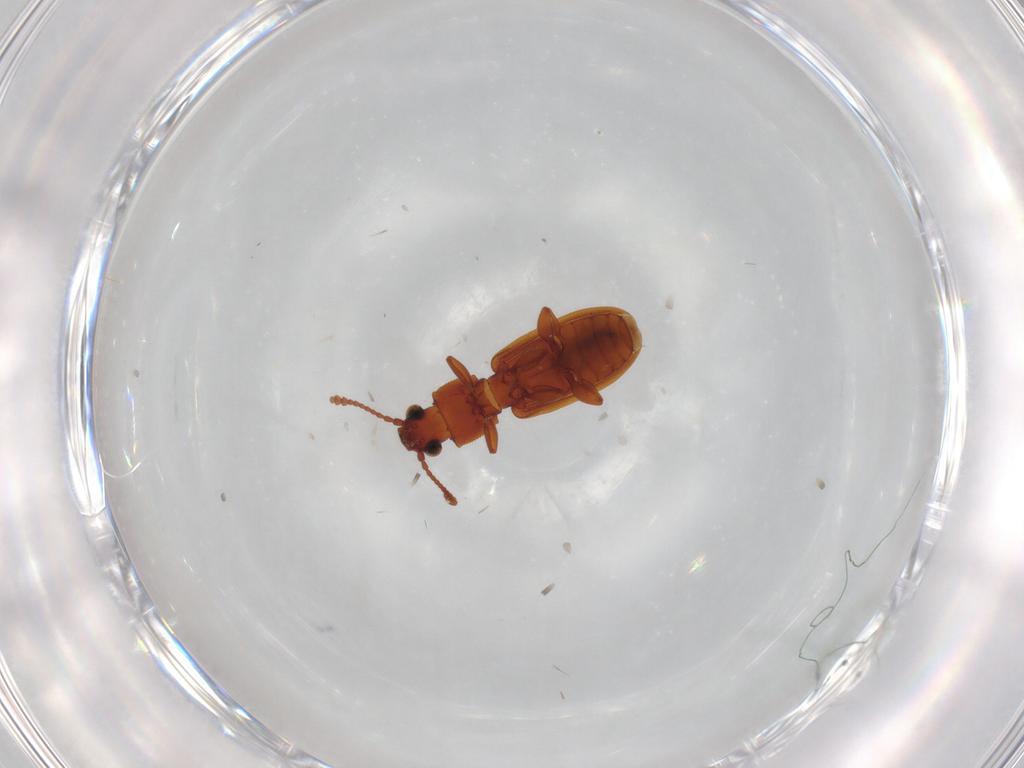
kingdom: Animalia
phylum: Arthropoda
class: Insecta
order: Coleoptera
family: Silvanidae
